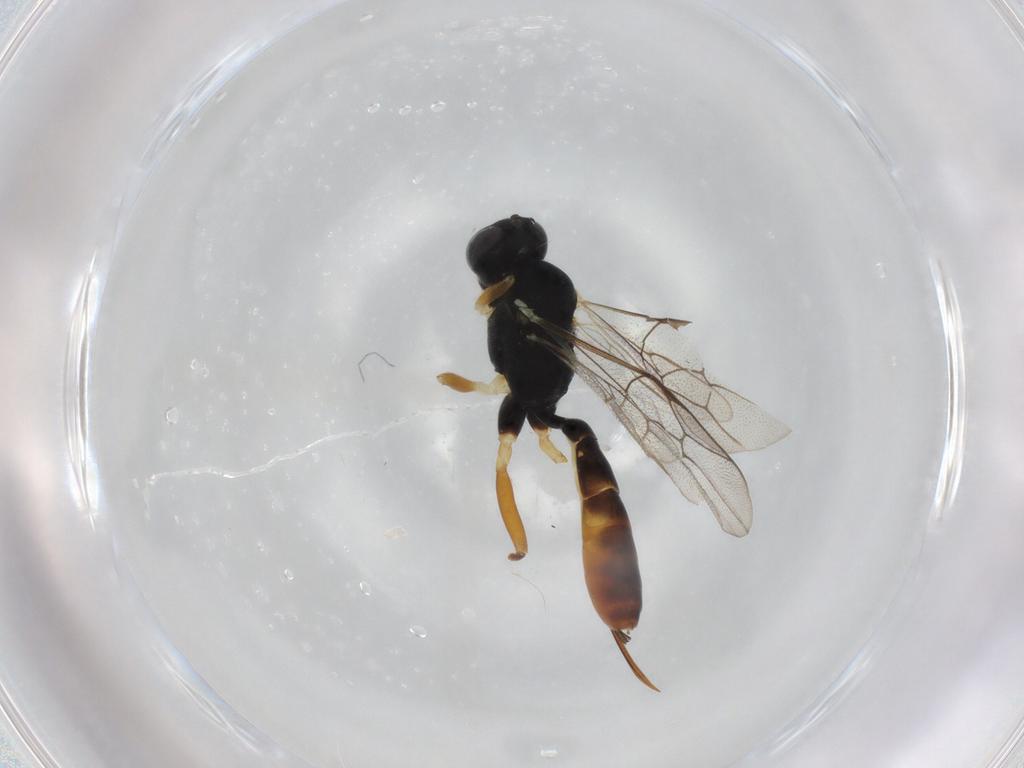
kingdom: Animalia
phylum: Arthropoda
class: Insecta
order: Hymenoptera
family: Ichneumonidae
